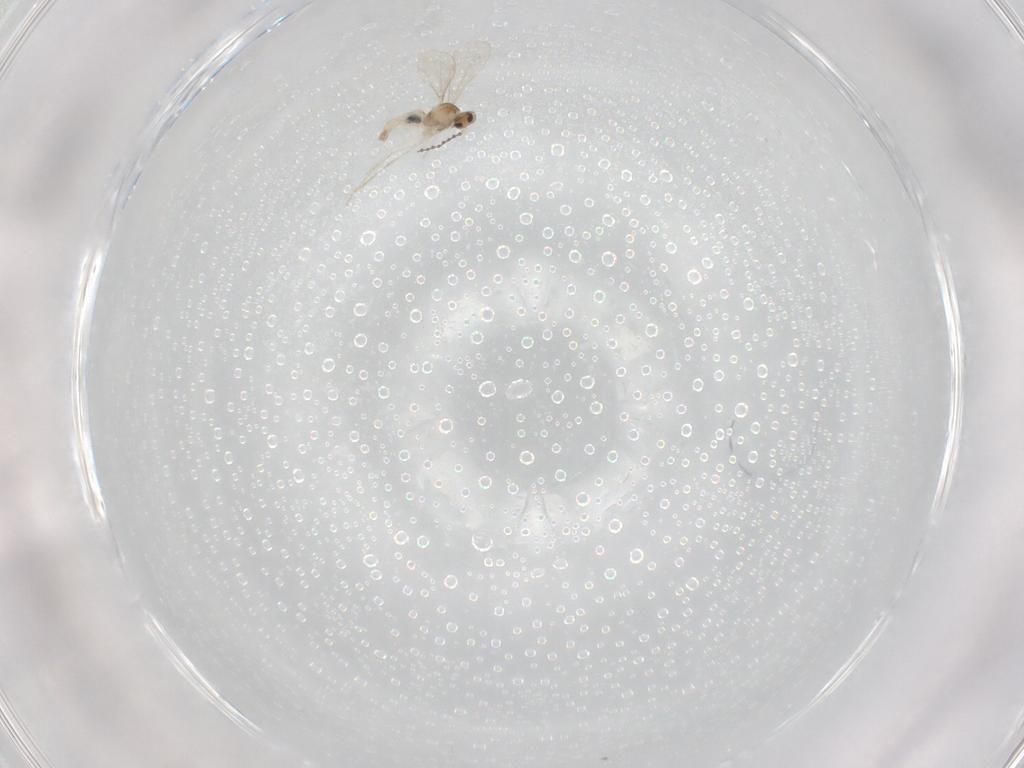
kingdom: Animalia
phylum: Arthropoda
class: Insecta
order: Diptera
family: Cecidomyiidae
